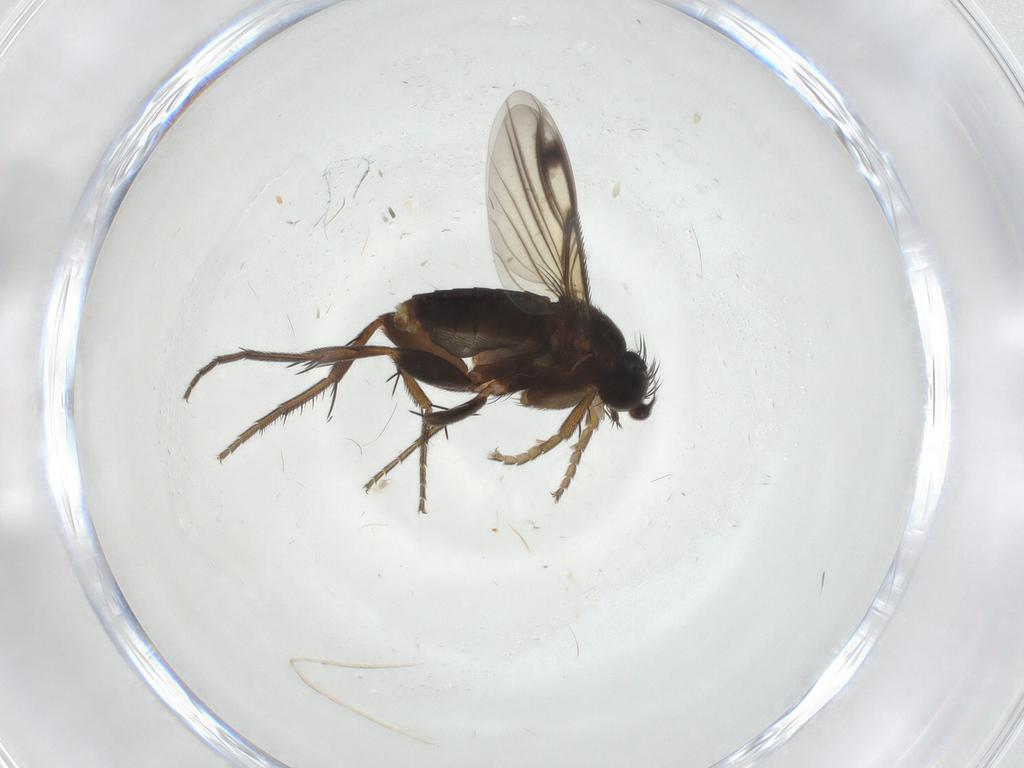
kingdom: Animalia
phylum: Arthropoda
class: Insecta
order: Diptera
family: Phoridae
